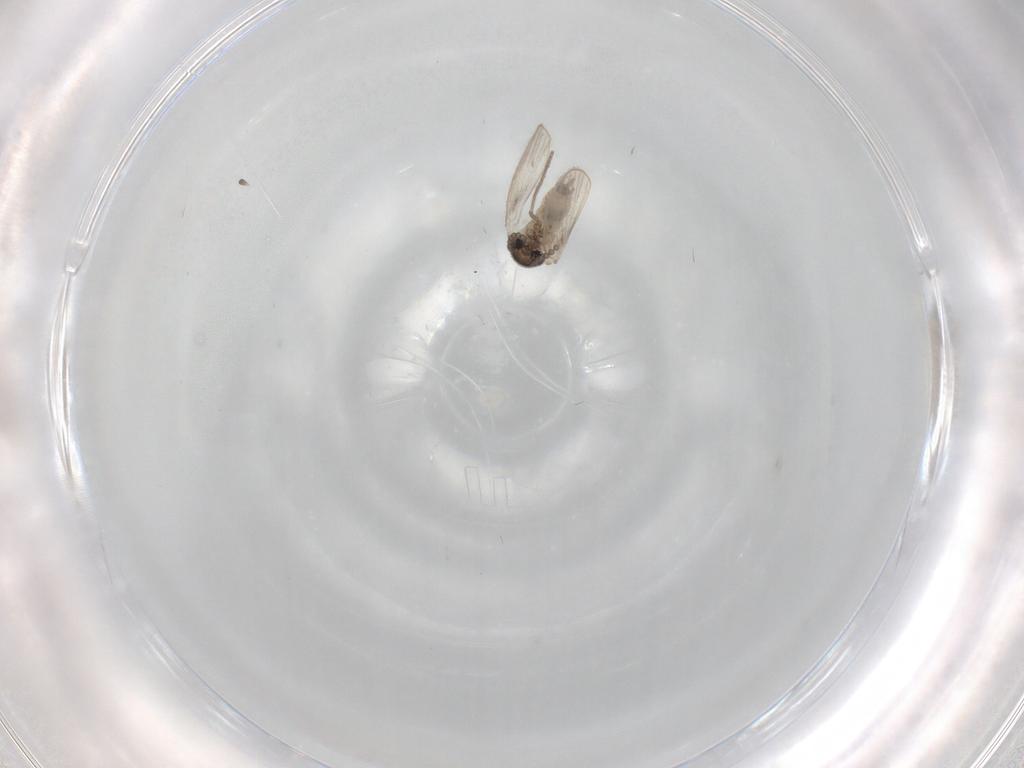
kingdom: Animalia
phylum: Arthropoda
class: Insecta
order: Diptera
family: Psychodidae
